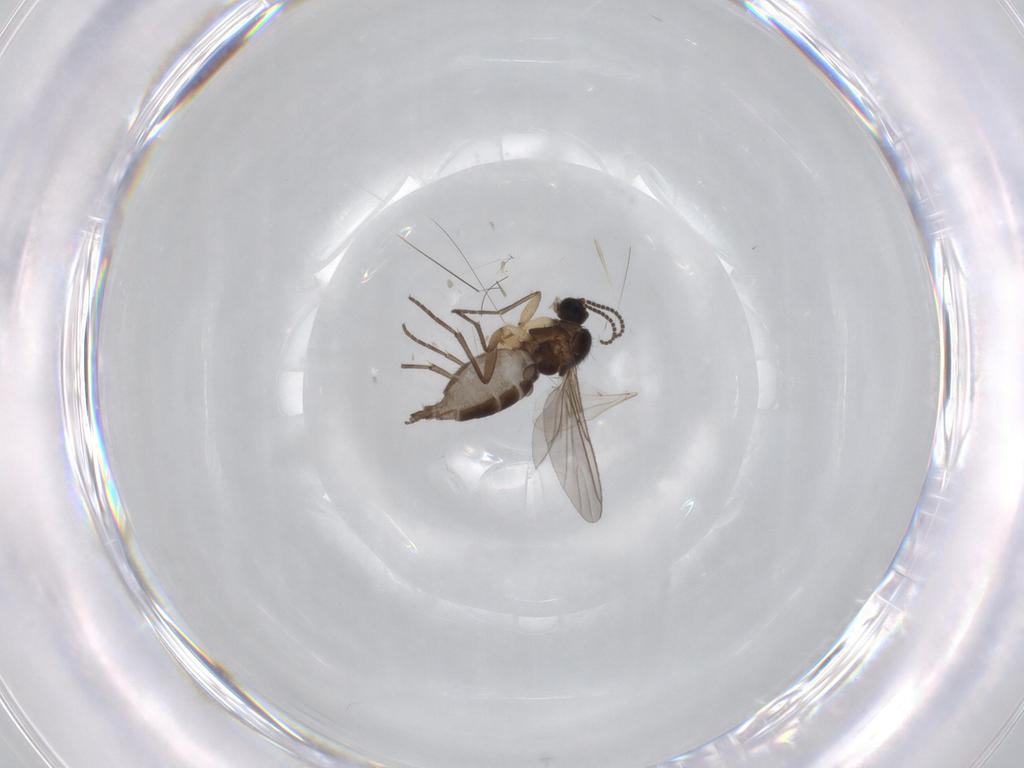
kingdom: Animalia
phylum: Arthropoda
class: Insecta
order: Diptera
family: Sciaridae
